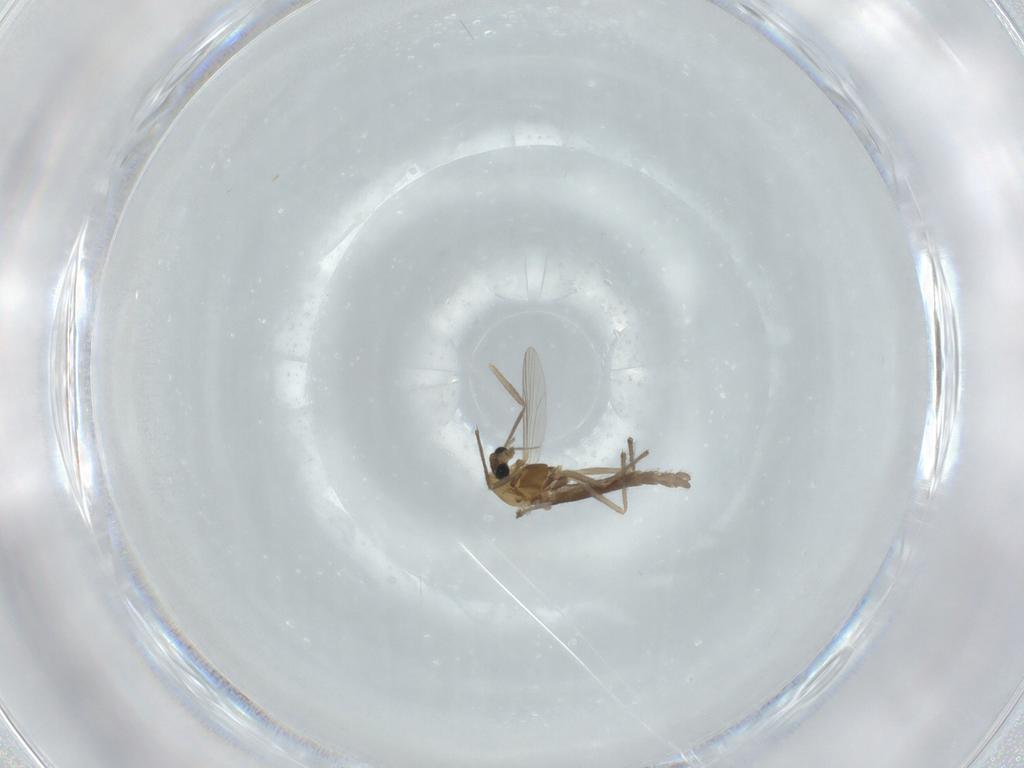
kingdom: Animalia
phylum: Arthropoda
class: Insecta
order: Diptera
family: Chironomidae
